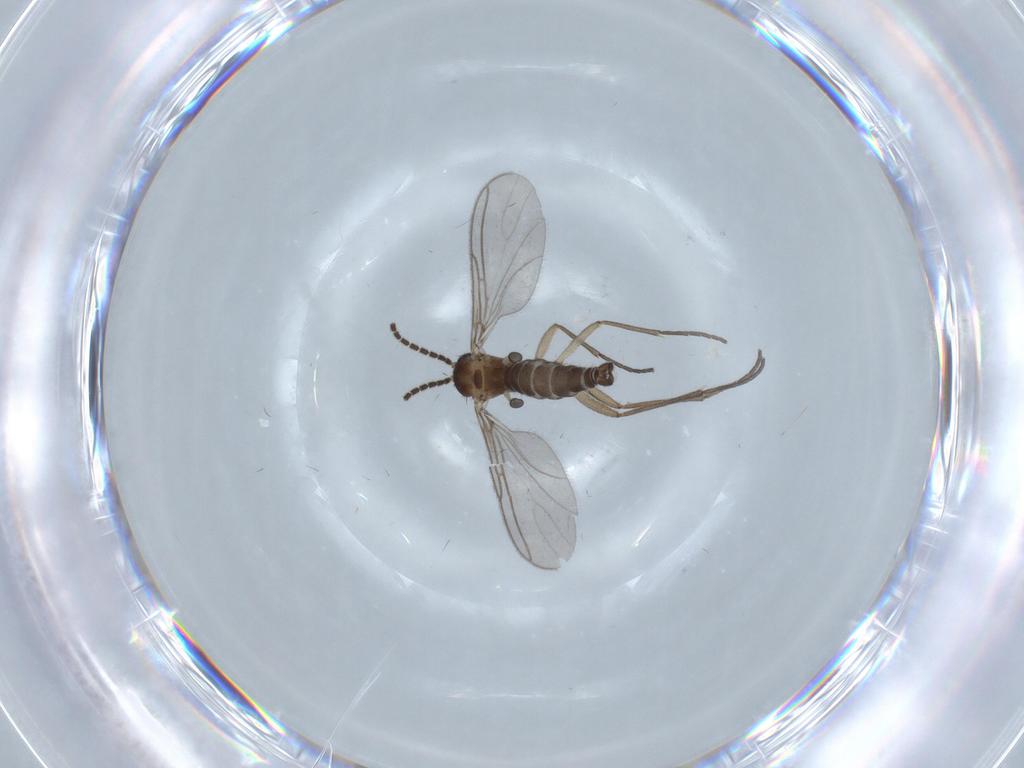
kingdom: Animalia
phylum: Arthropoda
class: Insecta
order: Diptera
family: Sciaridae
